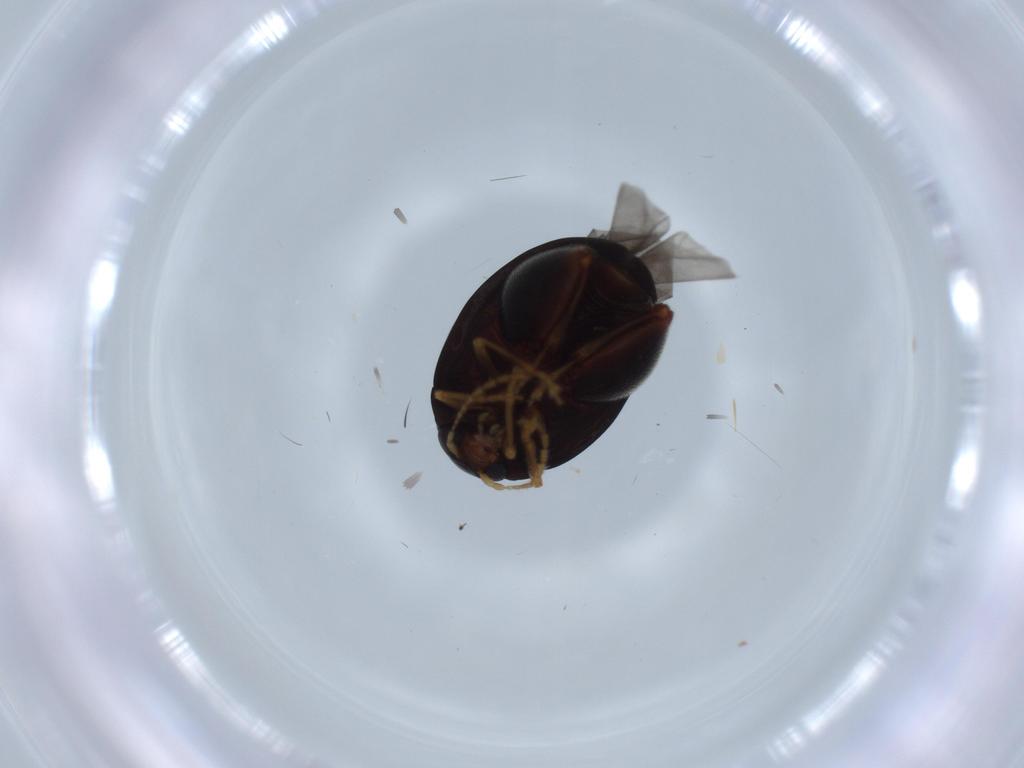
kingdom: Animalia
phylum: Arthropoda
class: Insecta
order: Coleoptera
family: Chrysomelidae
